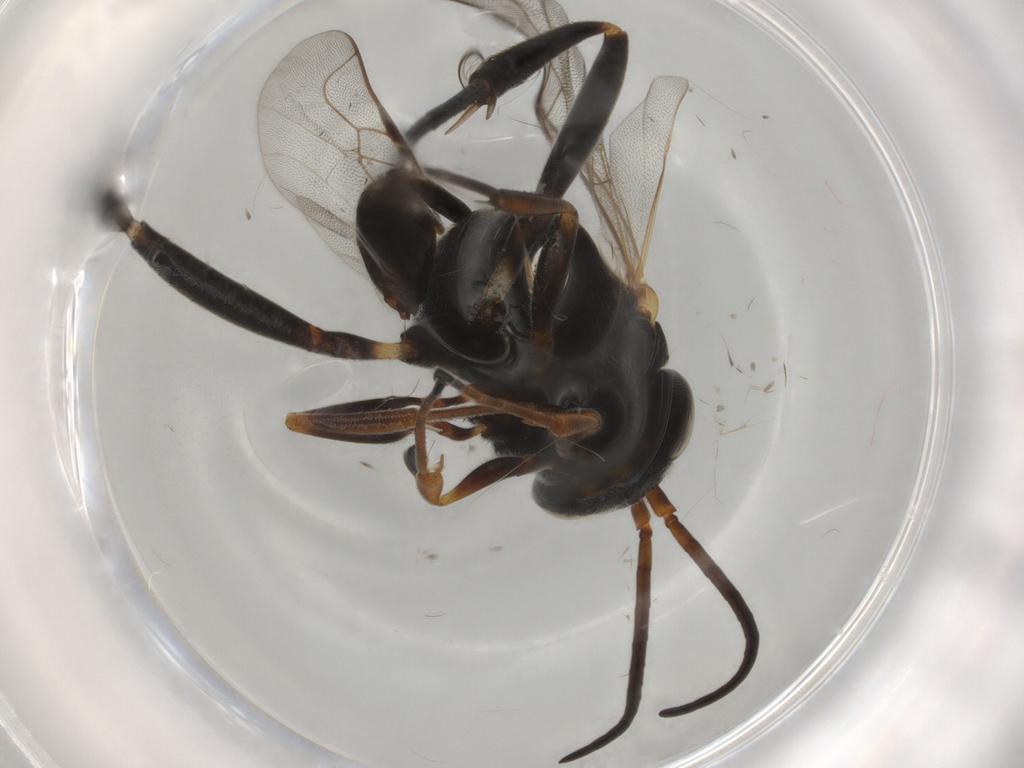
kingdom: Animalia
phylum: Arthropoda
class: Insecta
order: Hymenoptera
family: Evaniidae
